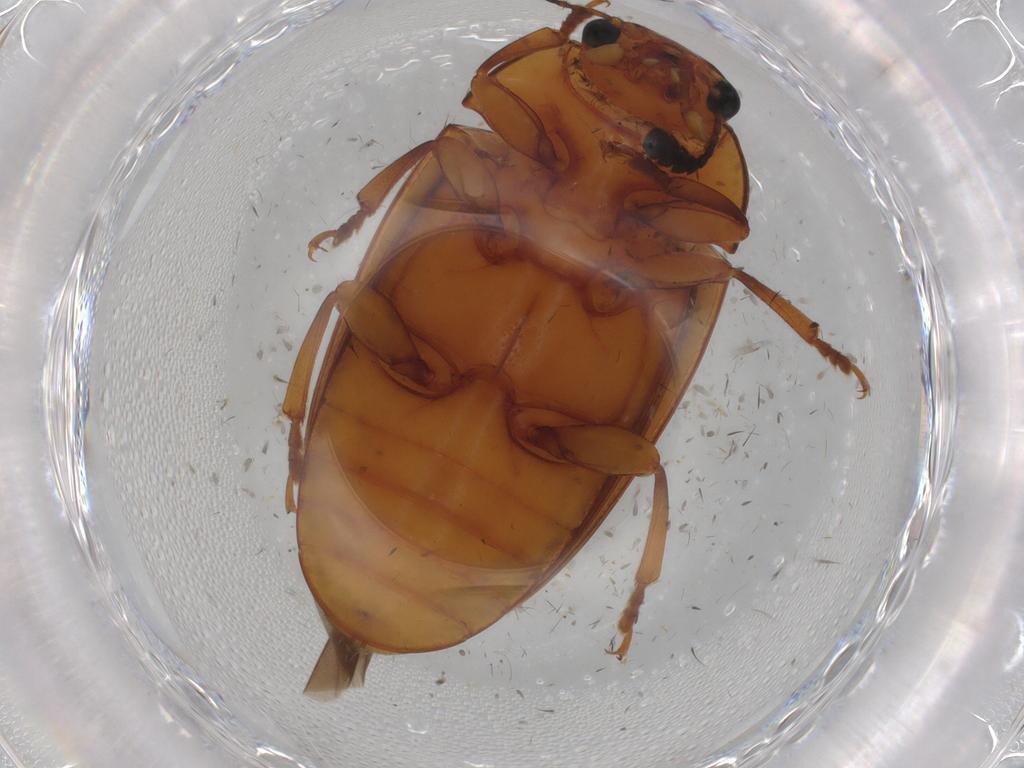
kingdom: Animalia
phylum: Arthropoda
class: Insecta
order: Coleoptera
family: Erotylidae
